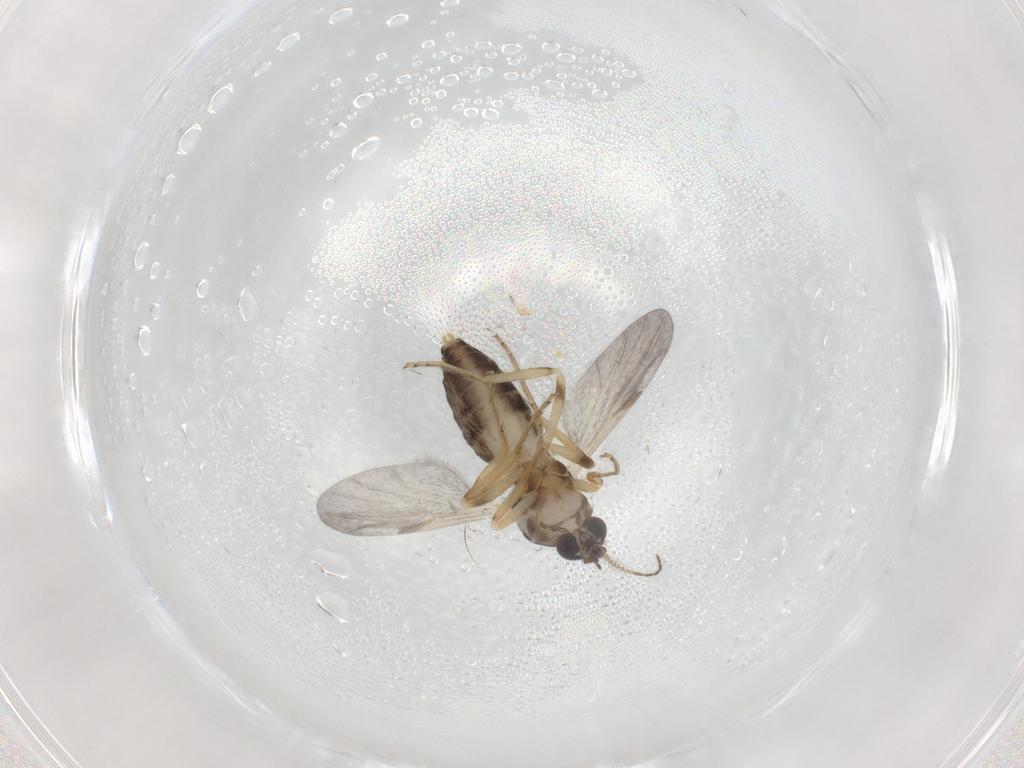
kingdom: Animalia
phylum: Arthropoda
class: Insecta
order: Diptera
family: Ceratopogonidae
